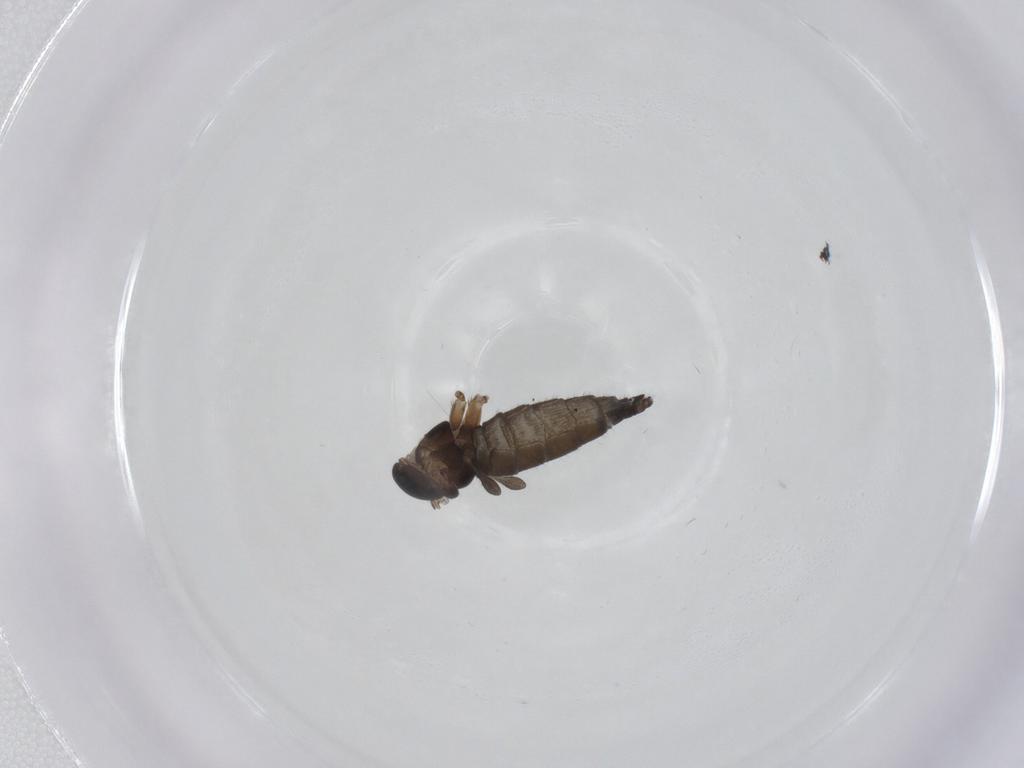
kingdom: Animalia
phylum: Arthropoda
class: Insecta
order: Diptera
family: Sciaridae
